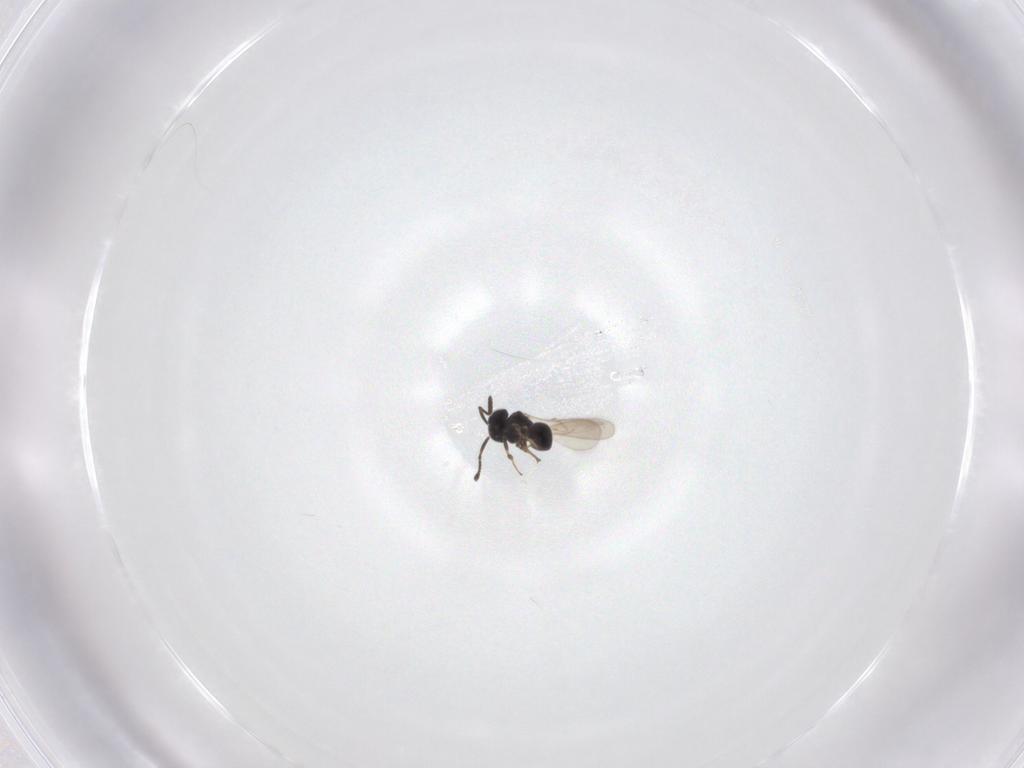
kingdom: Animalia
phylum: Arthropoda
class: Insecta
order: Hymenoptera
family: Scelionidae
